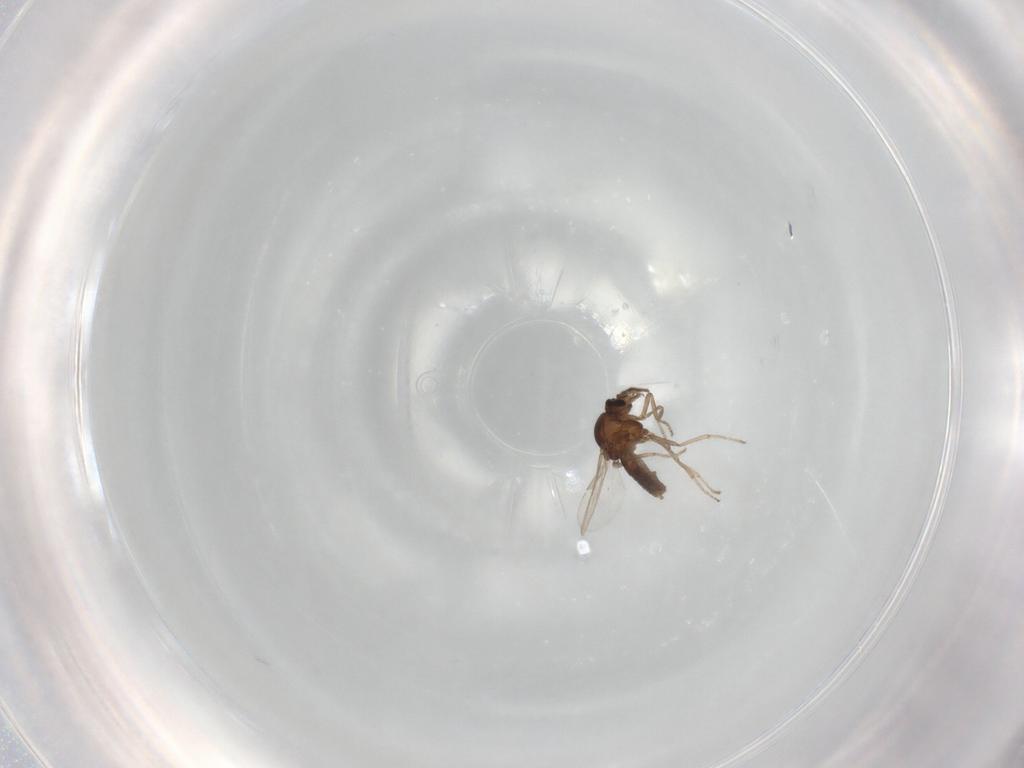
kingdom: Animalia
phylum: Arthropoda
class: Insecta
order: Diptera
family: Ceratopogonidae
